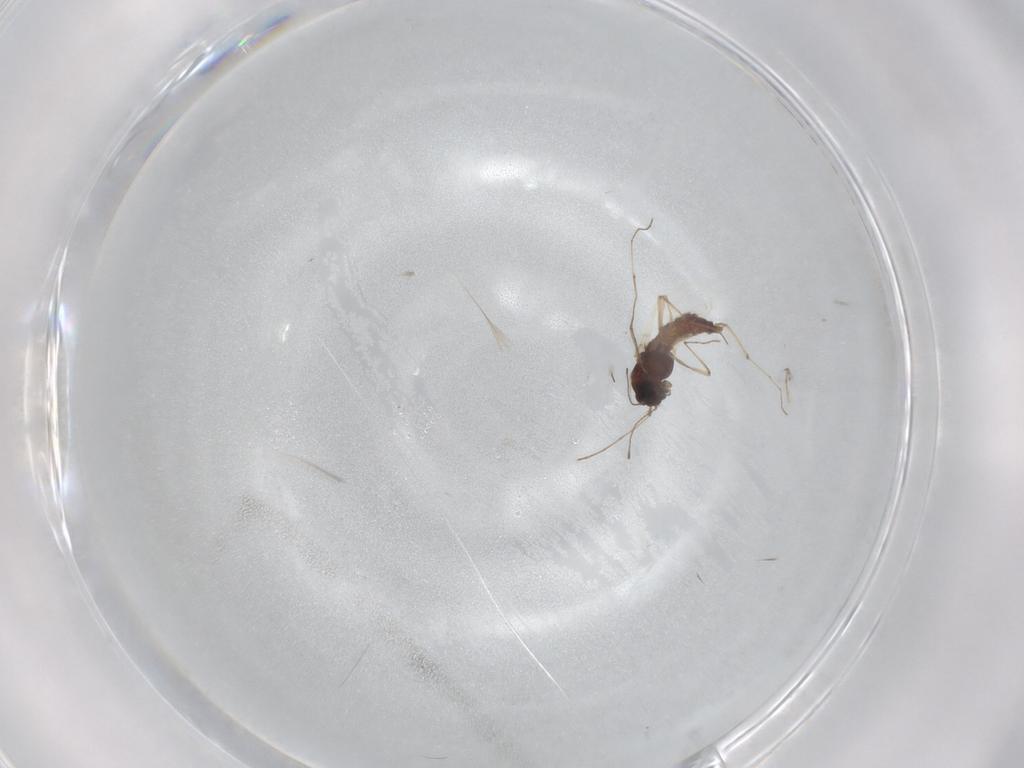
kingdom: Animalia
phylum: Arthropoda
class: Insecta
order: Diptera
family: Chironomidae
